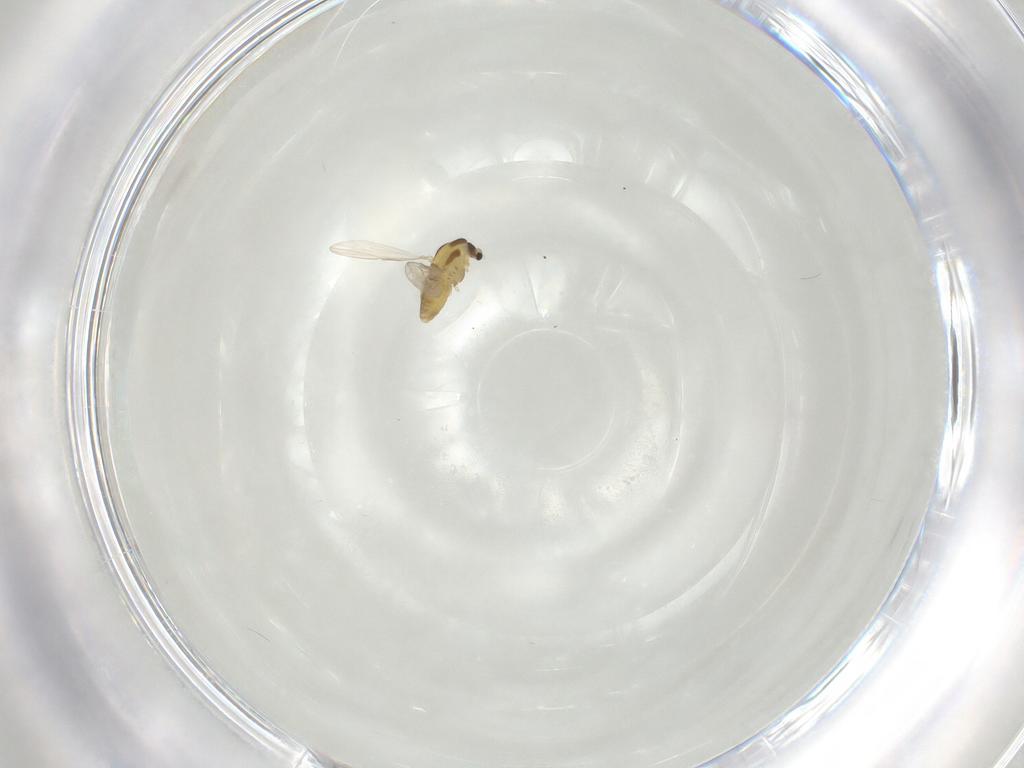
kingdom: Animalia
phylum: Arthropoda
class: Insecta
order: Diptera
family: Chironomidae
